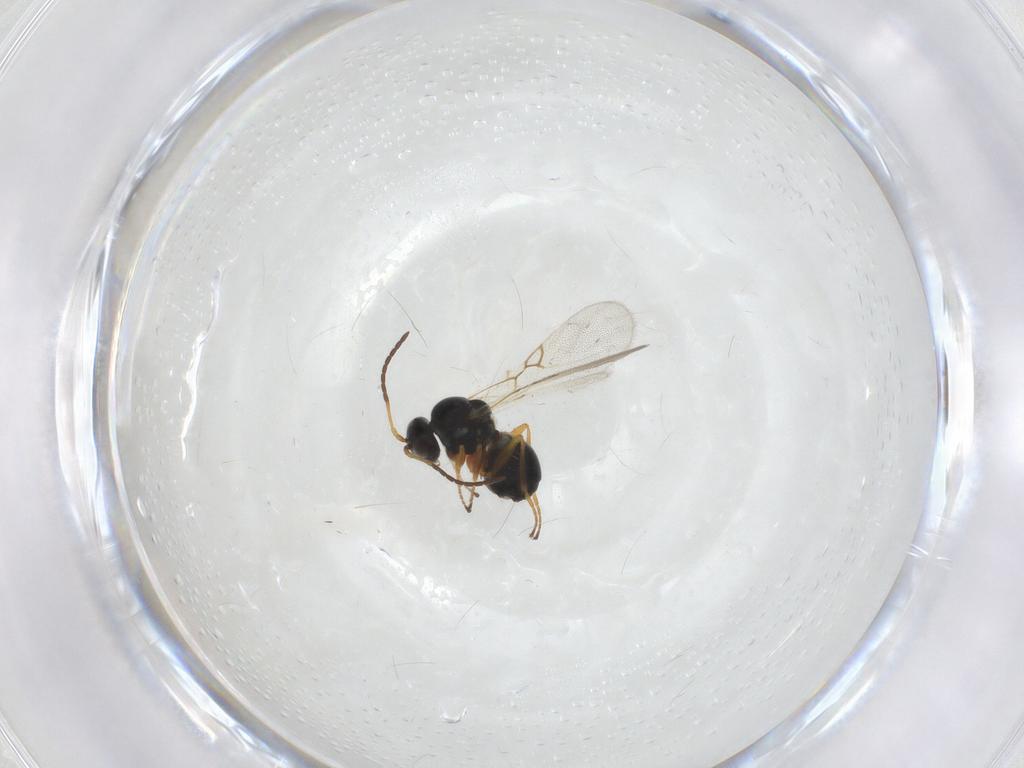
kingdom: Animalia
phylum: Arthropoda
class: Insecta
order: Hymenoptera
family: Figitidae
